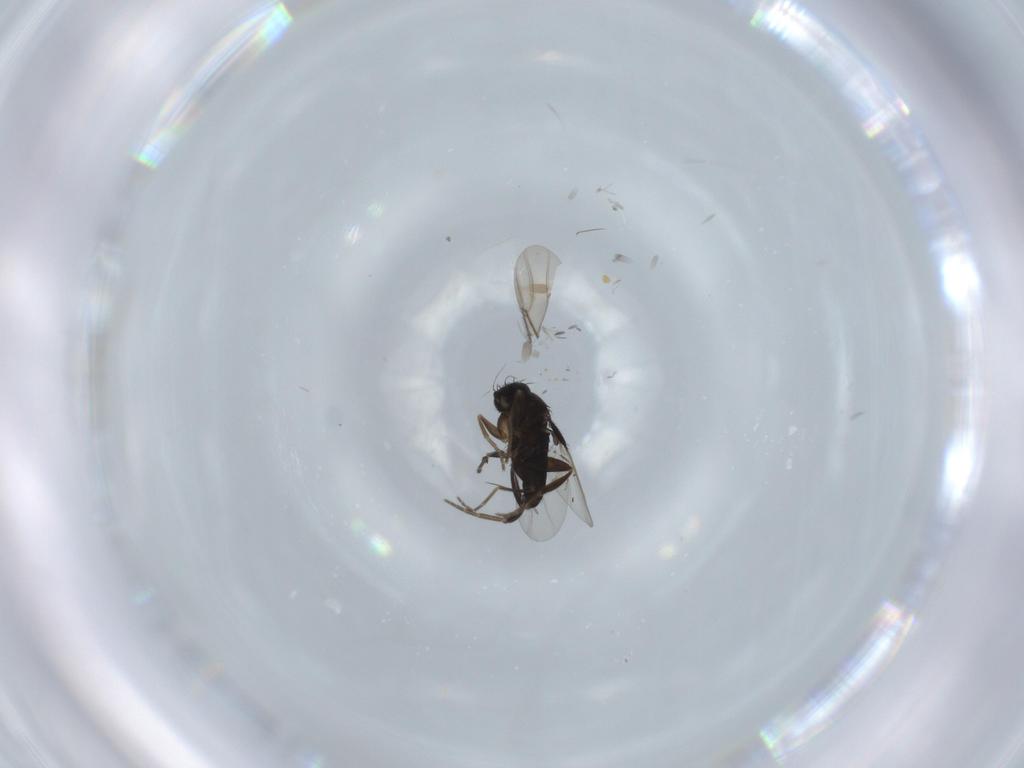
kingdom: Animalia
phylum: Arthropoda
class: Insecta
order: Diptera
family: Phoridae
